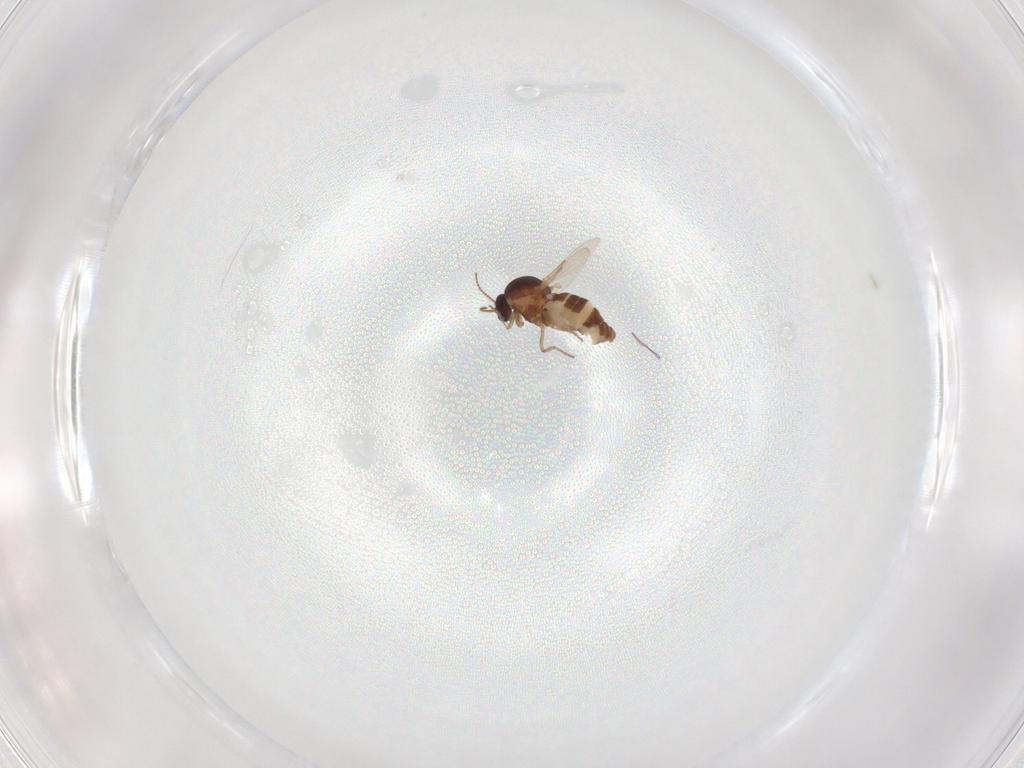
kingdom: Animalia
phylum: Arthropoda
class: Insecta
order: Diptera
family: Ceratopogonidae
